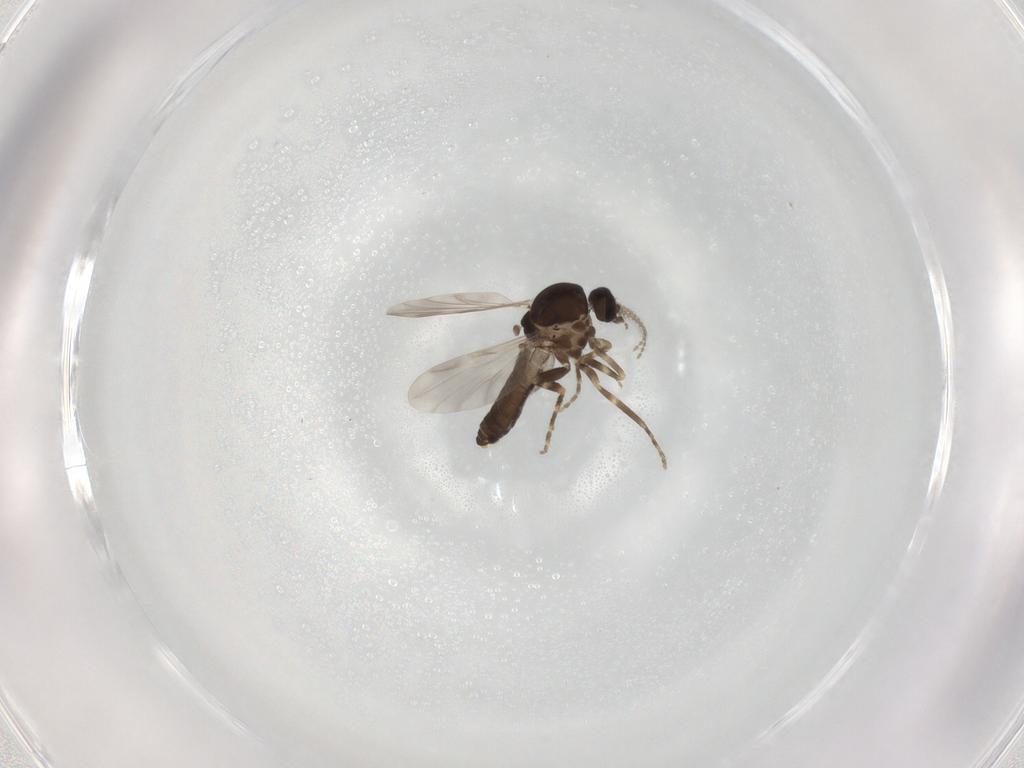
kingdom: Animalia
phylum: Arthropoda
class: Insecta
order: Diptera
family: Ceratopogonidae
